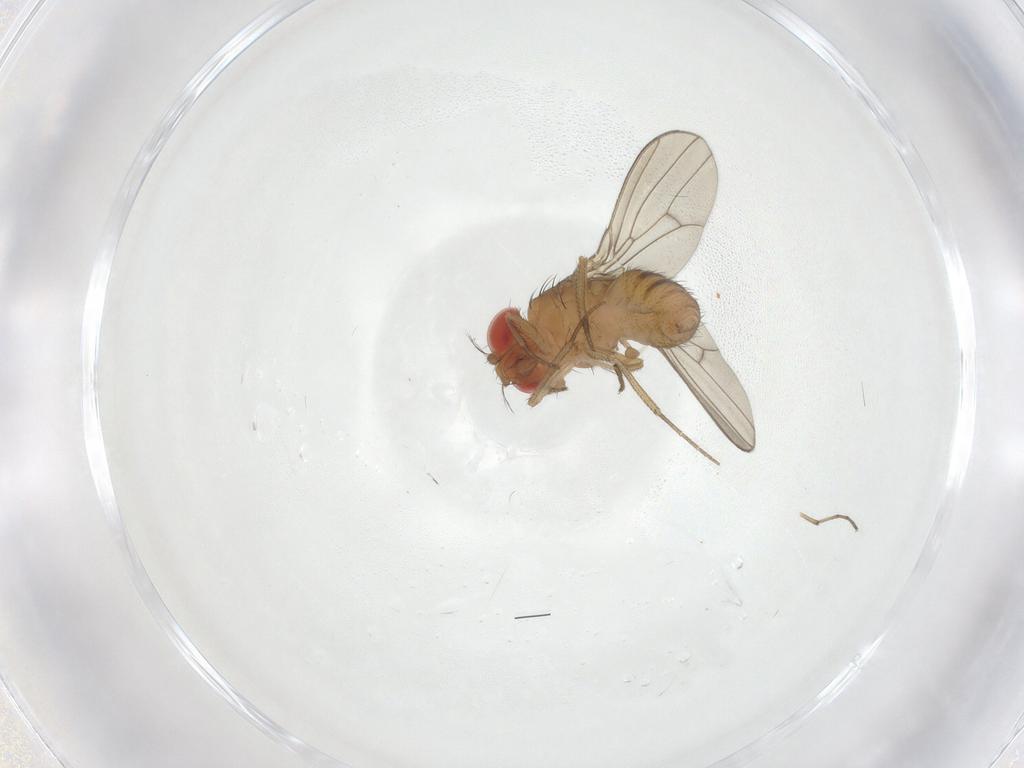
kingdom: Animalia
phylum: Arthropoda
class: Insecta
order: Diptera
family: Drosophilidae
